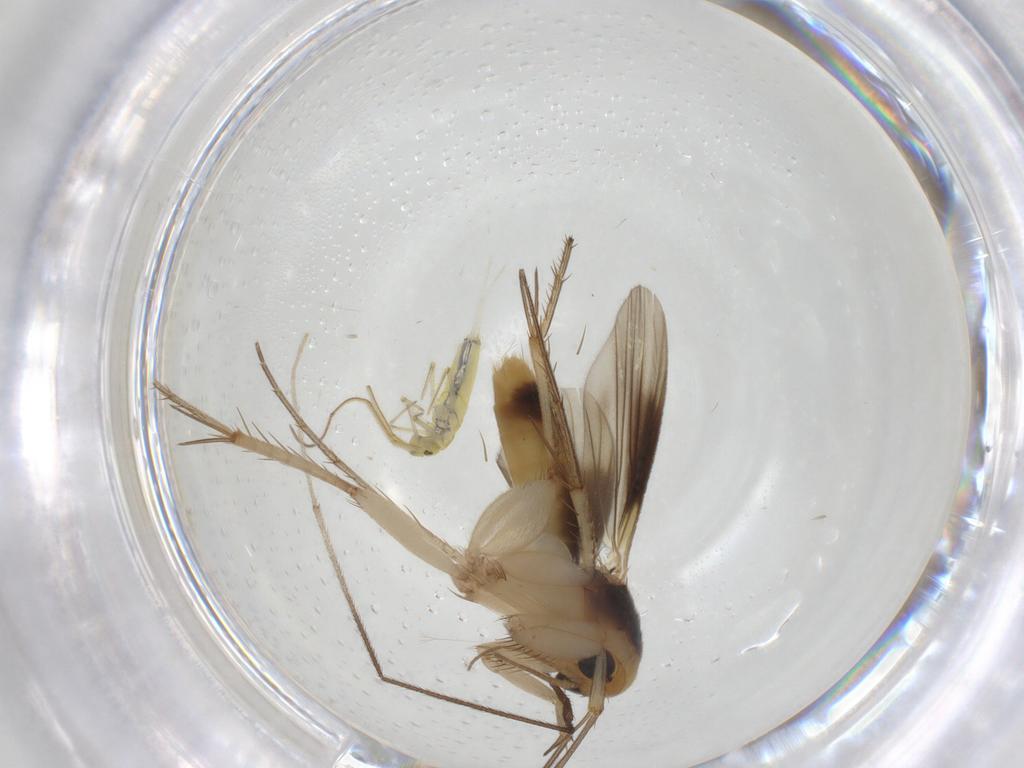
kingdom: Animalia
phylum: Arthropoda
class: Insecta
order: Diptera
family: Mycetophilidae
